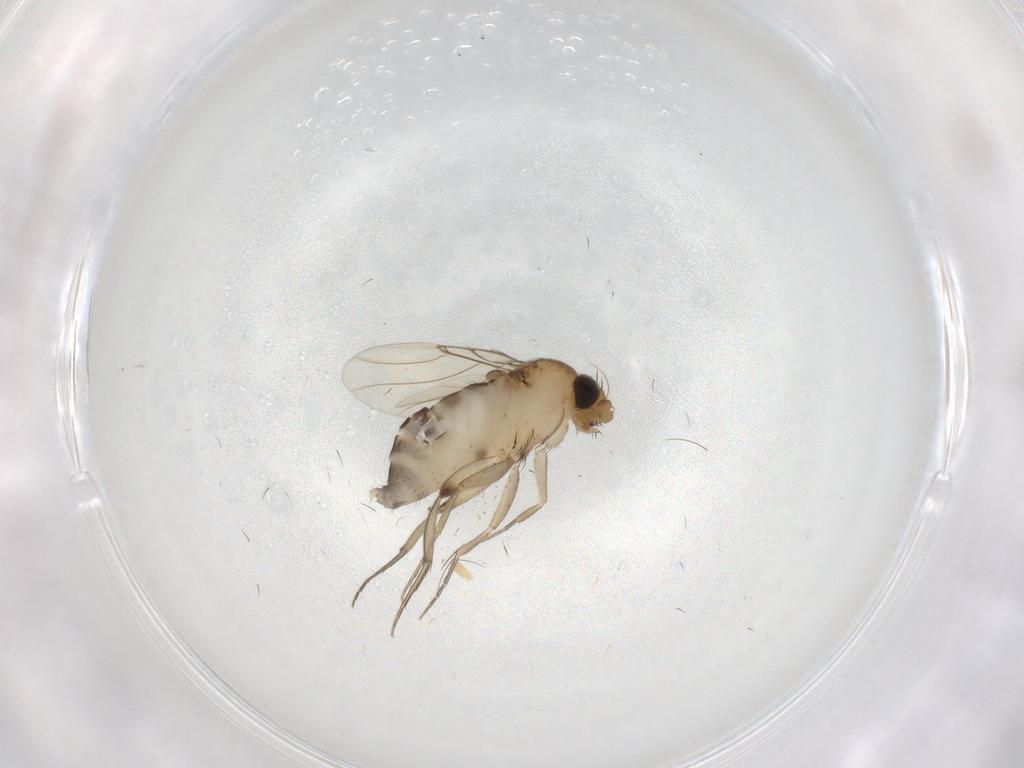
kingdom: Animalia
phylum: Arthropoda
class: Insecta
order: Diptera
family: Phoridae
